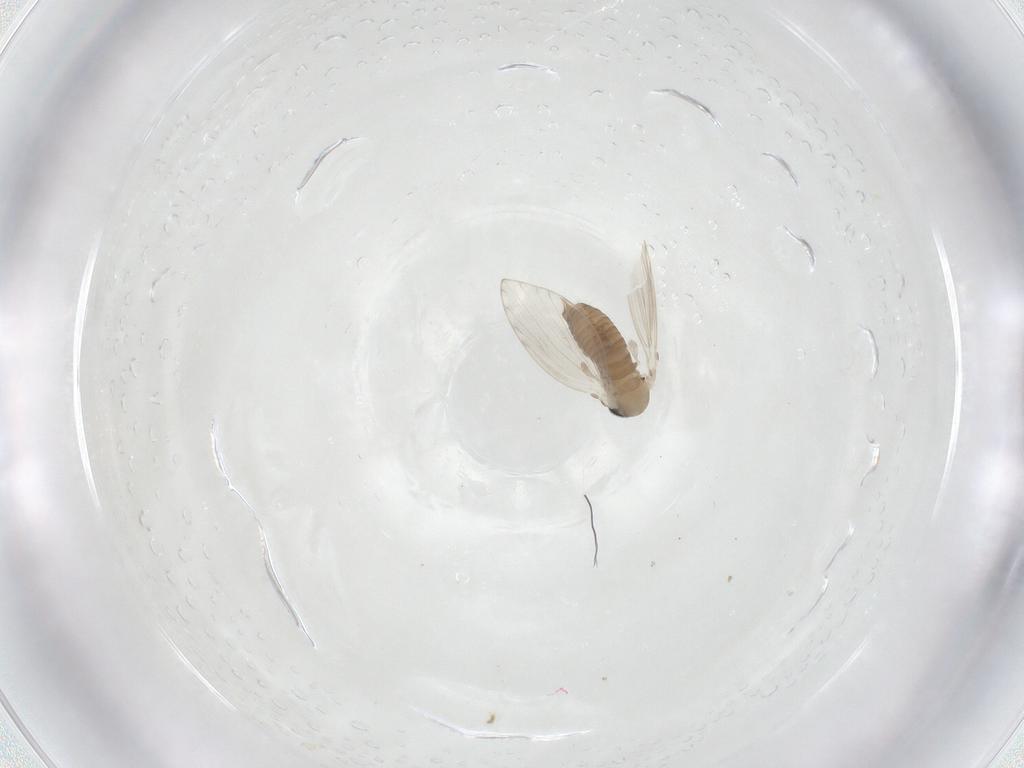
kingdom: Animalia
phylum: Arthropoda
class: Insecta
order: Diptera
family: Psychodidae
